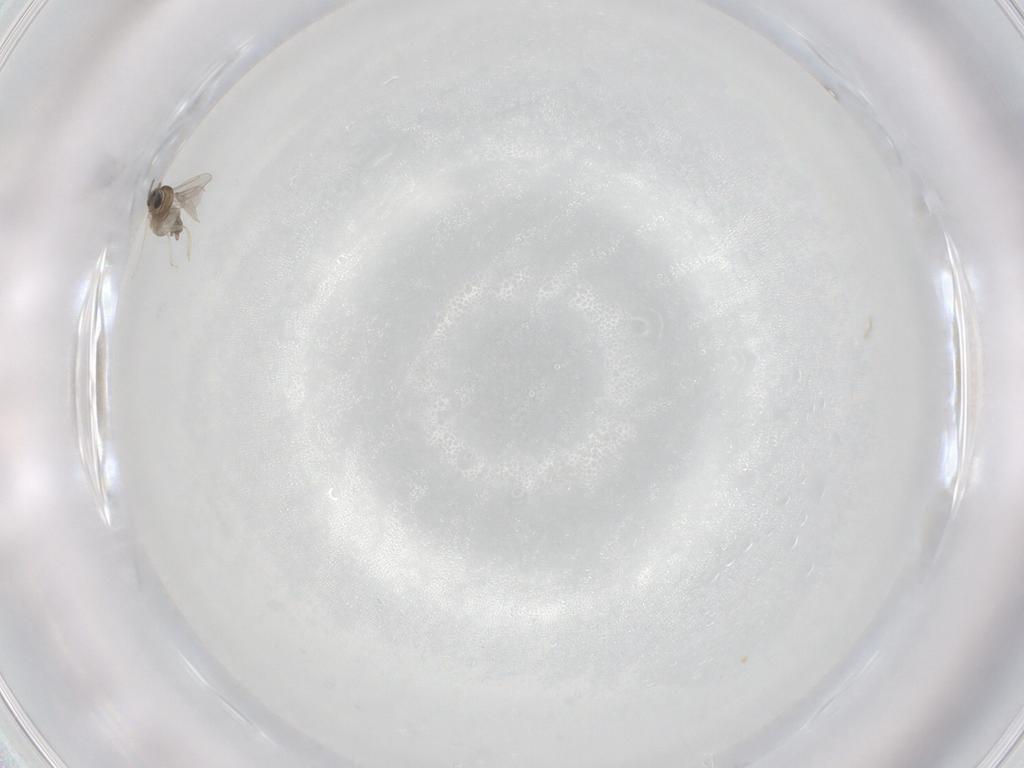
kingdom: Animalia
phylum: Arthropoda
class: Insecta
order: Diptera
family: Cecidomyiidae
